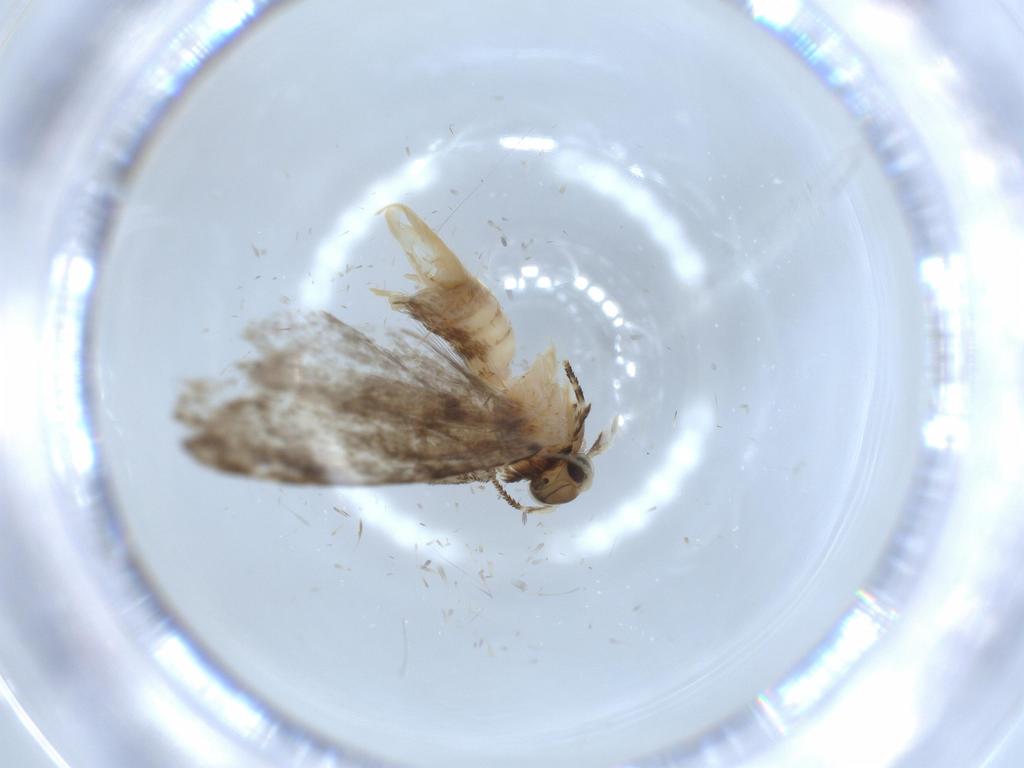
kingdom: Animalia
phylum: Arthropoda
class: Insecta
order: Lepidoptera
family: Tineidae
